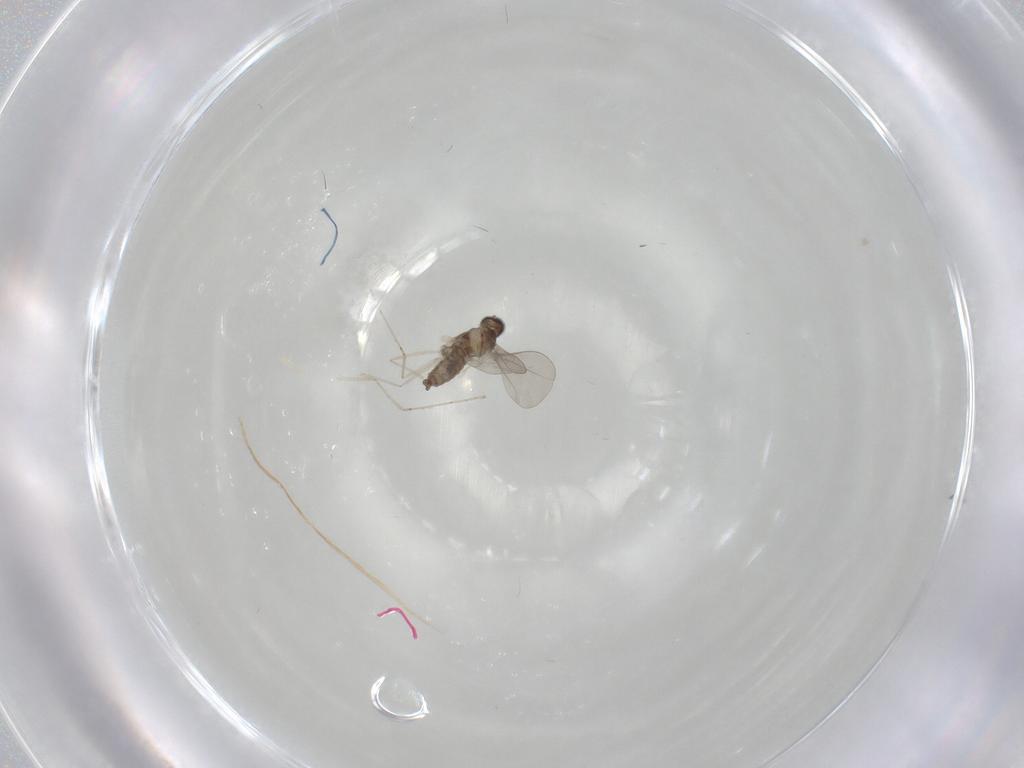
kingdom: Animalia
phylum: Arthropoda
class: Insecta
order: Diptera
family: Cecidomyiidae
